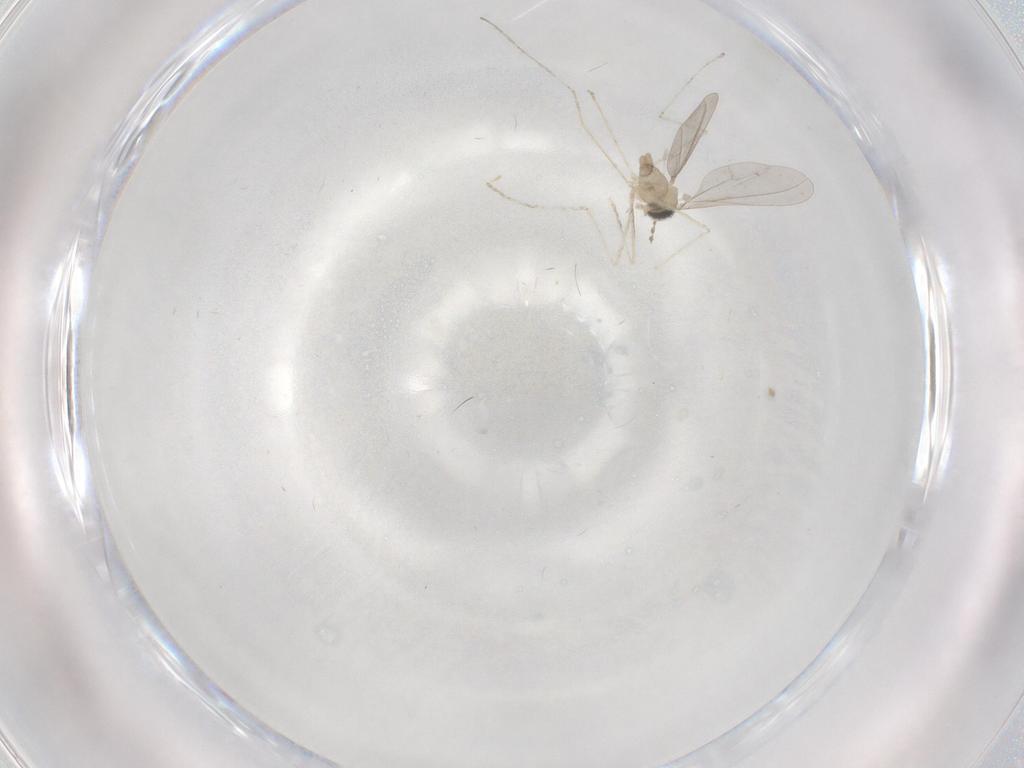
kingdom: Animalia
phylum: Arthropoda
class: Insecta
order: Diptera
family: Cecidomyiidae
